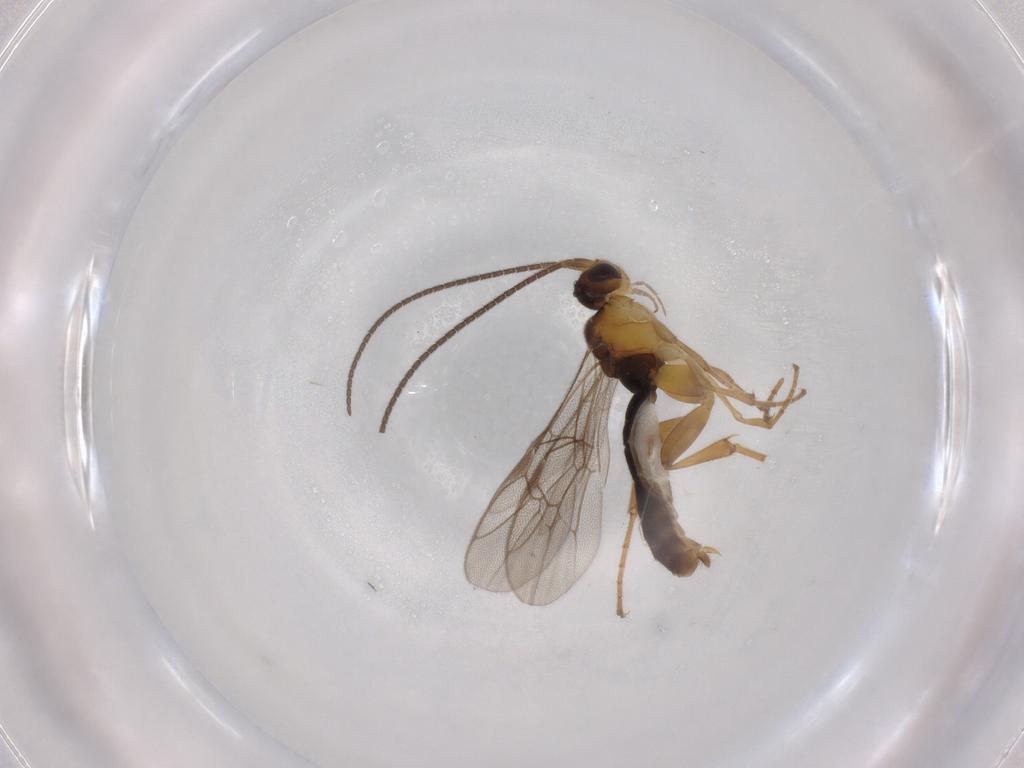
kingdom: Animalia
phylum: Arthropoda
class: Insecta
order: Hymenoptera
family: Ichneumonidae
